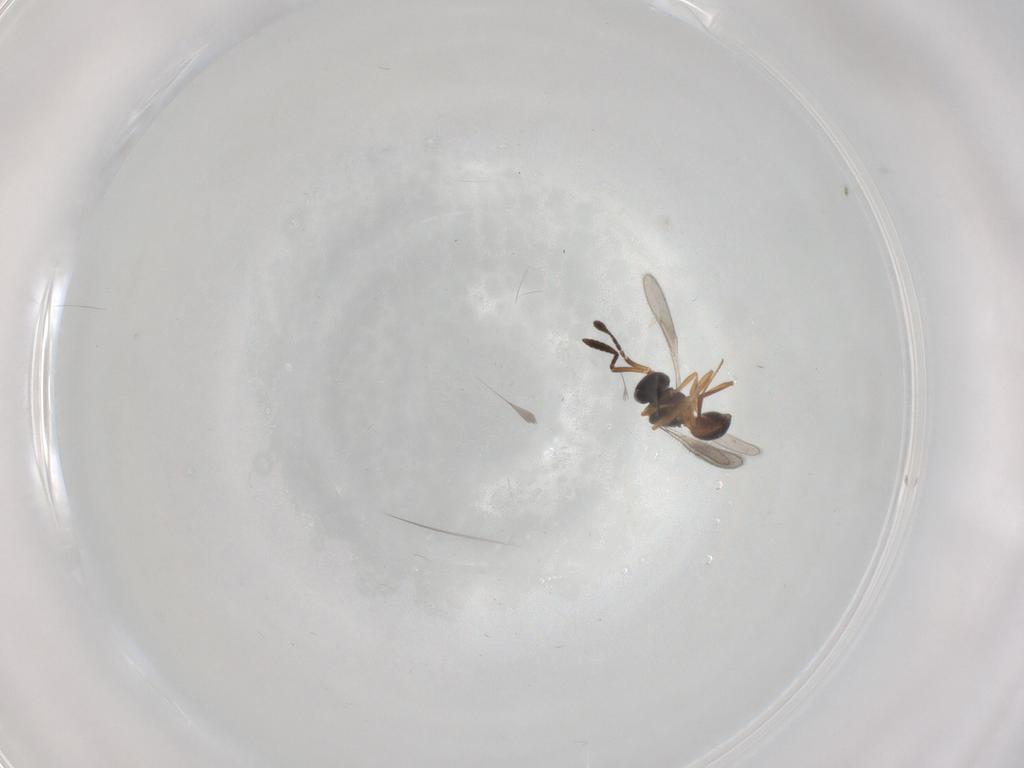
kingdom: Animalia
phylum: Arthropoda
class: Insecta
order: Hymenoptera
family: Scelionidae
